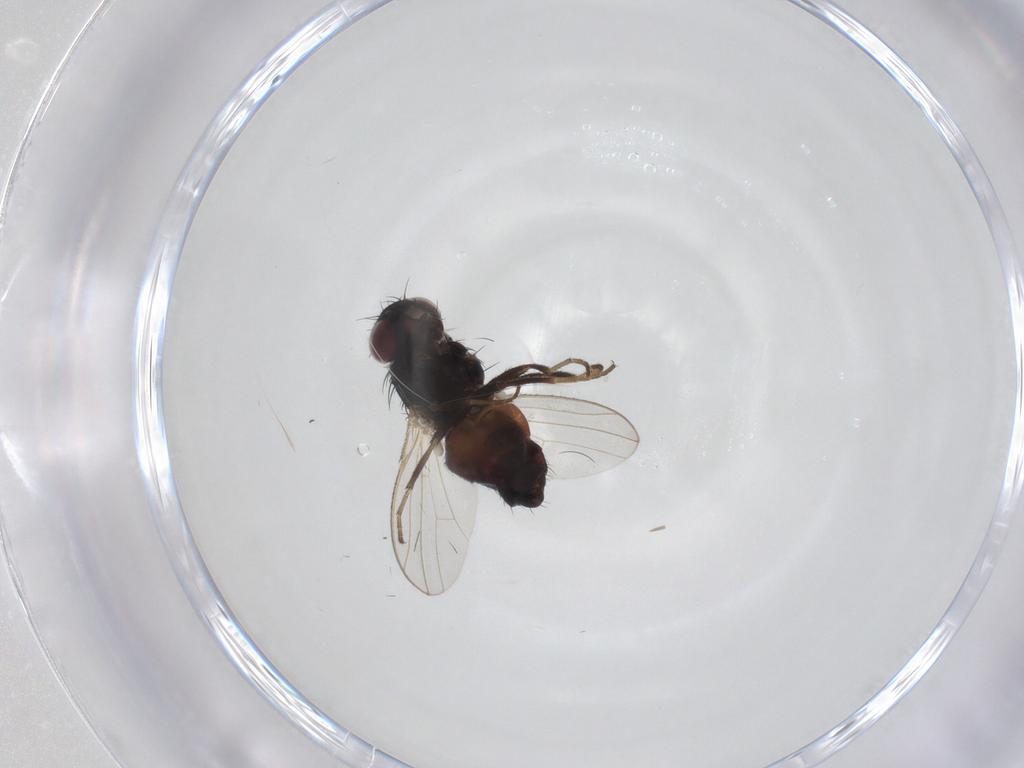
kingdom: Animalia
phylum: Arthropoda
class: Insecta
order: Diptera
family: Carnidae
